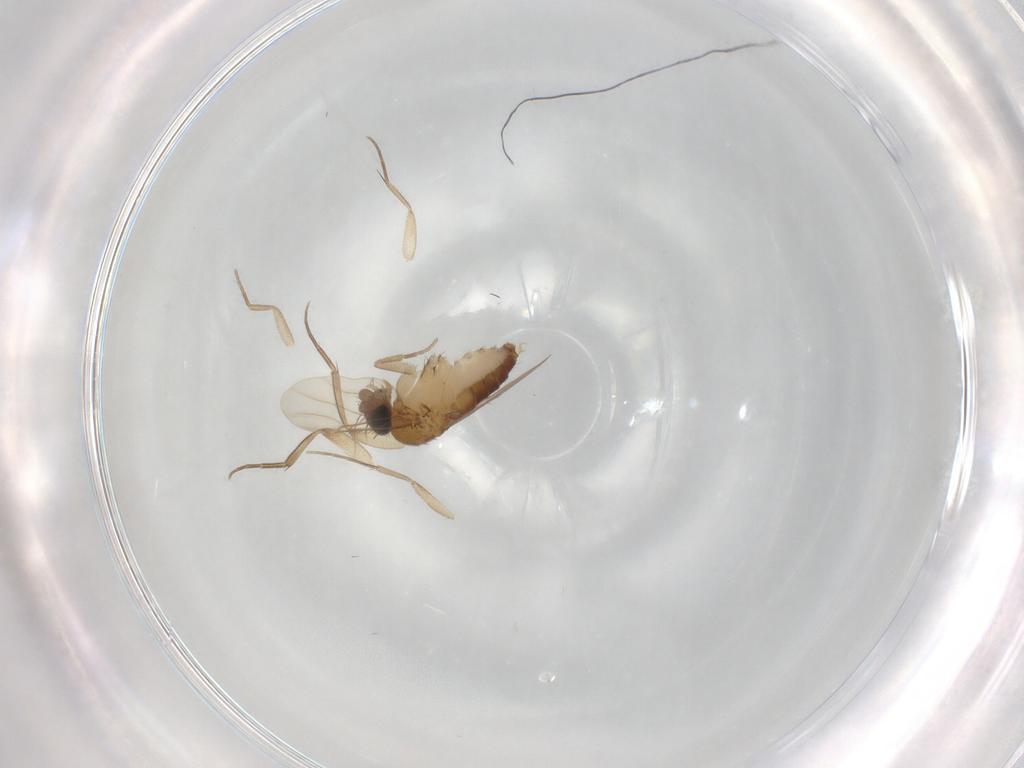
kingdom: Animalia
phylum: Arthropoda
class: Insecta
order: Diptera
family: Phoridae
